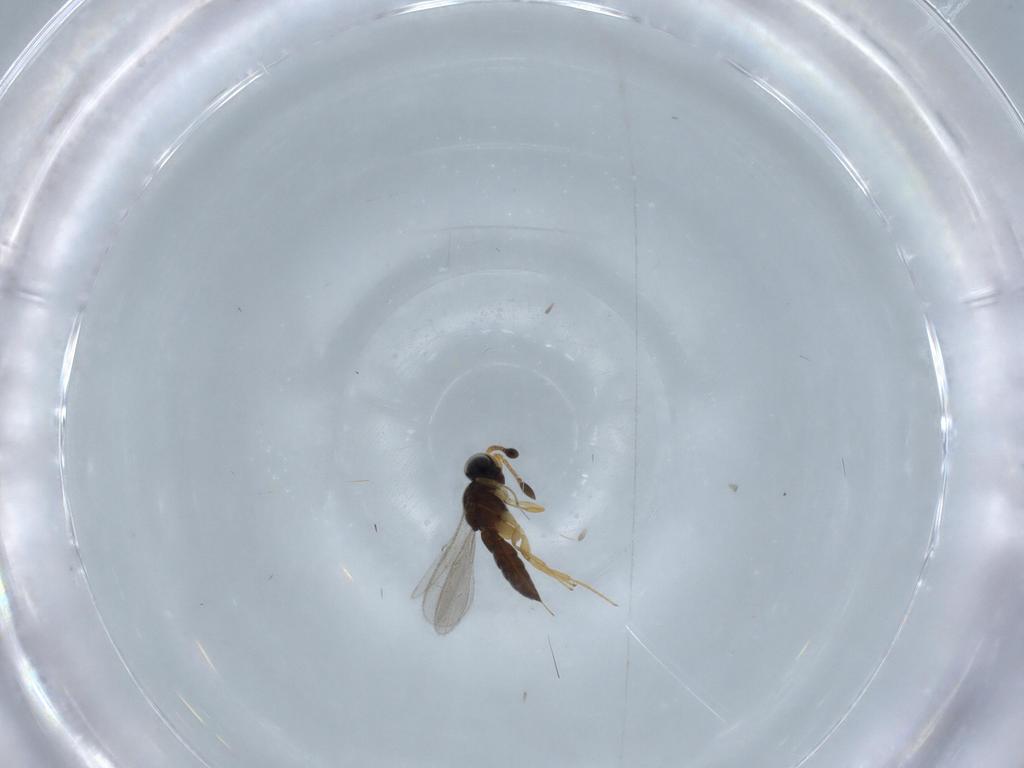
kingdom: Animalia
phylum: Arthropoda
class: Insecta
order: Hymenoptera
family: Scelionidae
